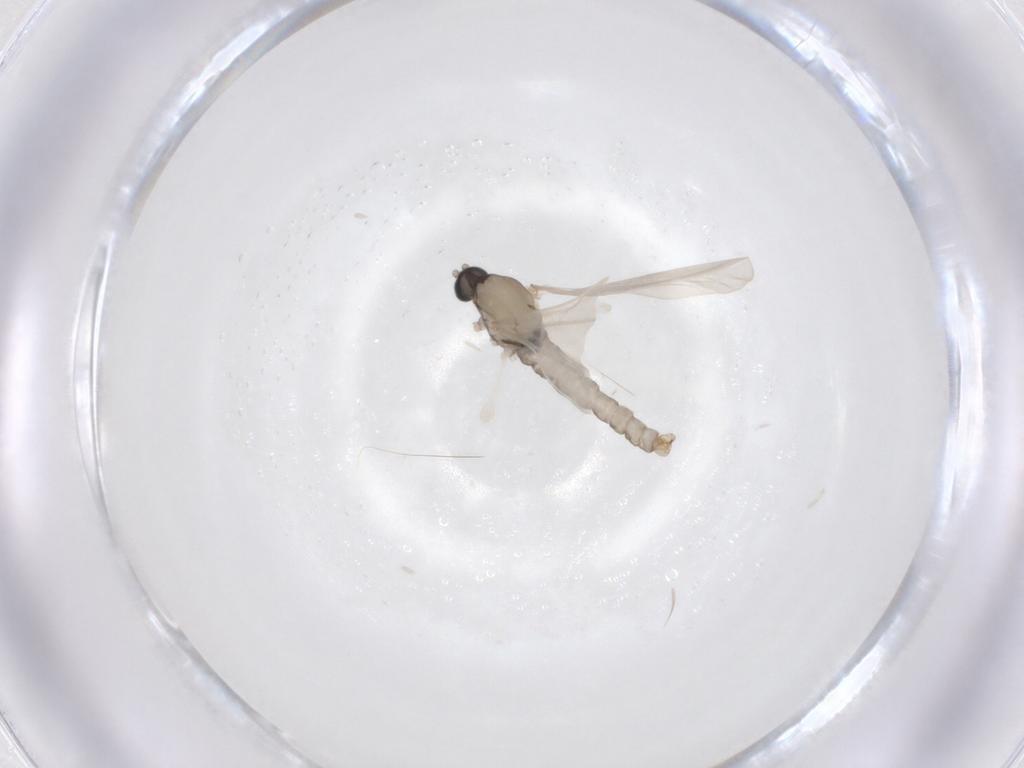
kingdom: Animalia
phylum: Arthropoda
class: Insecta
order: Diptera
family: Cecidomyiidae
